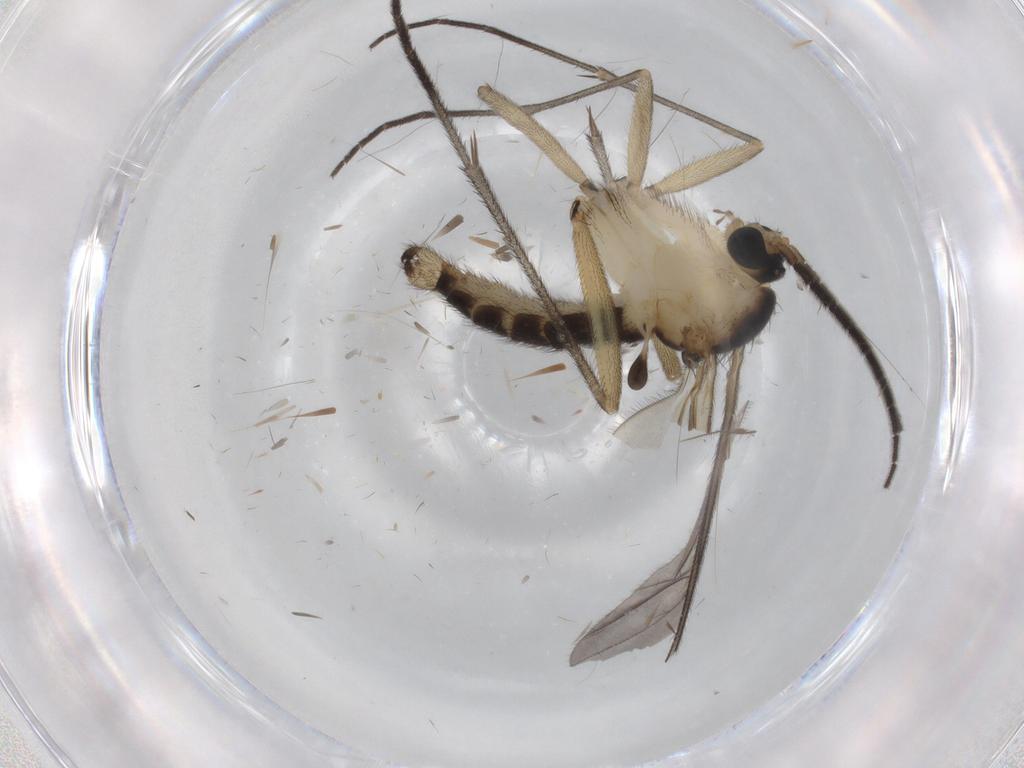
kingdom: Animalia
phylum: Arthropoda
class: Insecta
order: Diptera
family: Sciaridae
